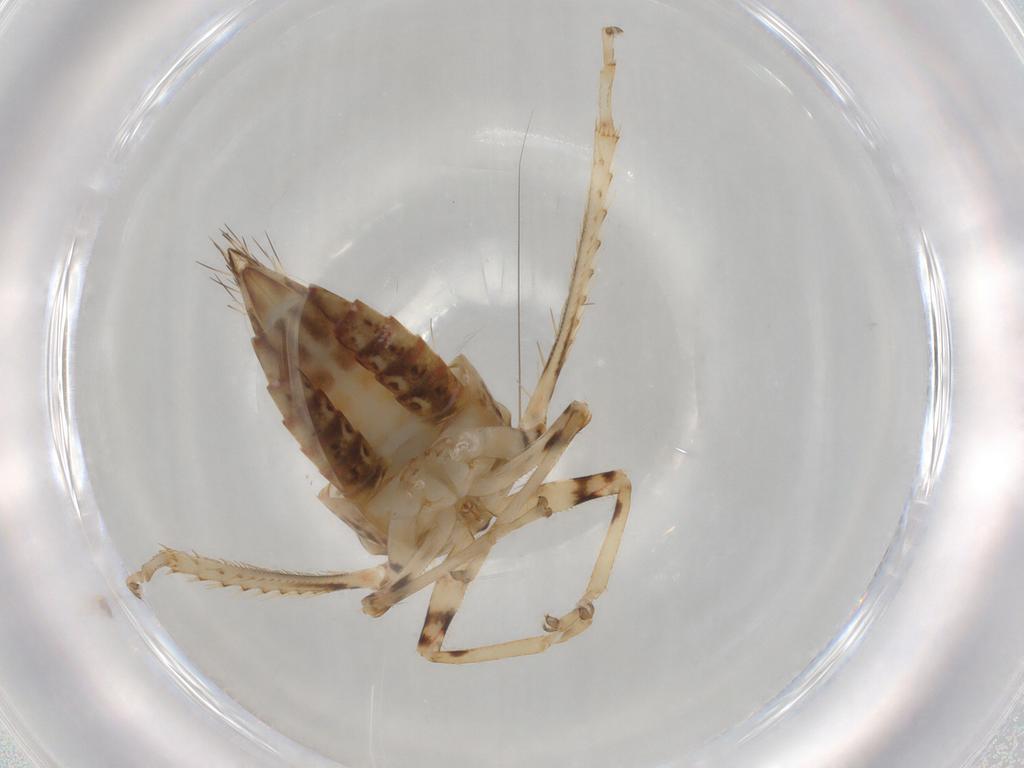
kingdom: Animalia
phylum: Arthropoda
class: Insecta
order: Hemiptera
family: Cicadellidae
